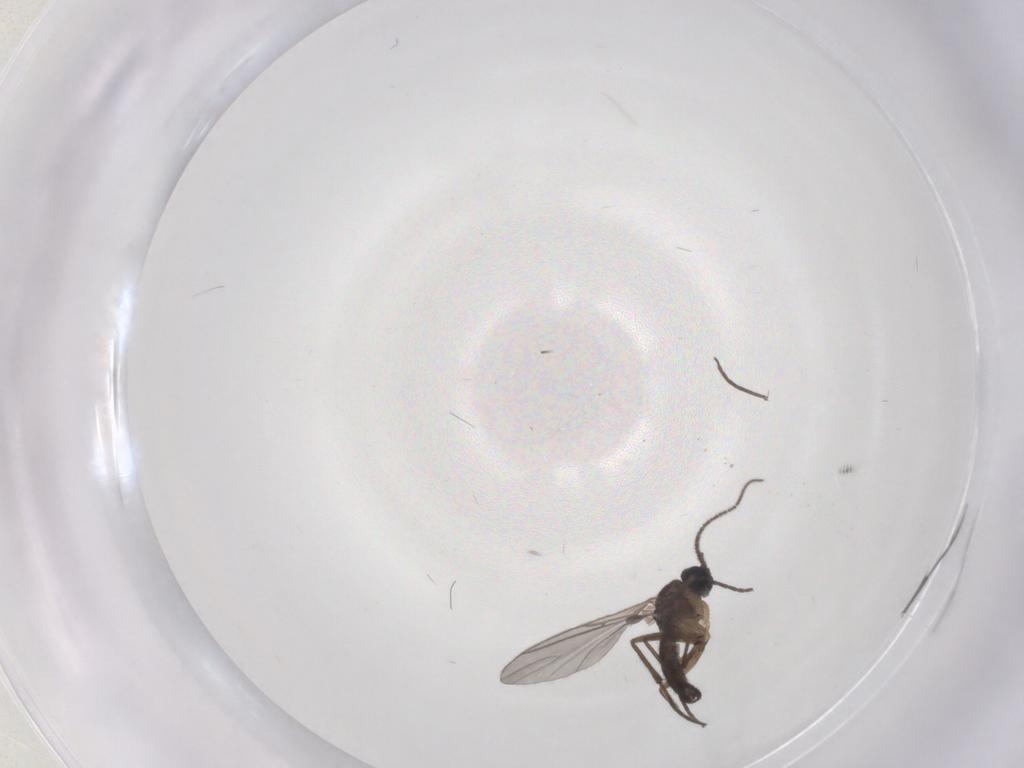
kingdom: Animalia
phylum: Arthropoda
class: Insecta
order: Diptera
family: Sciaridae
